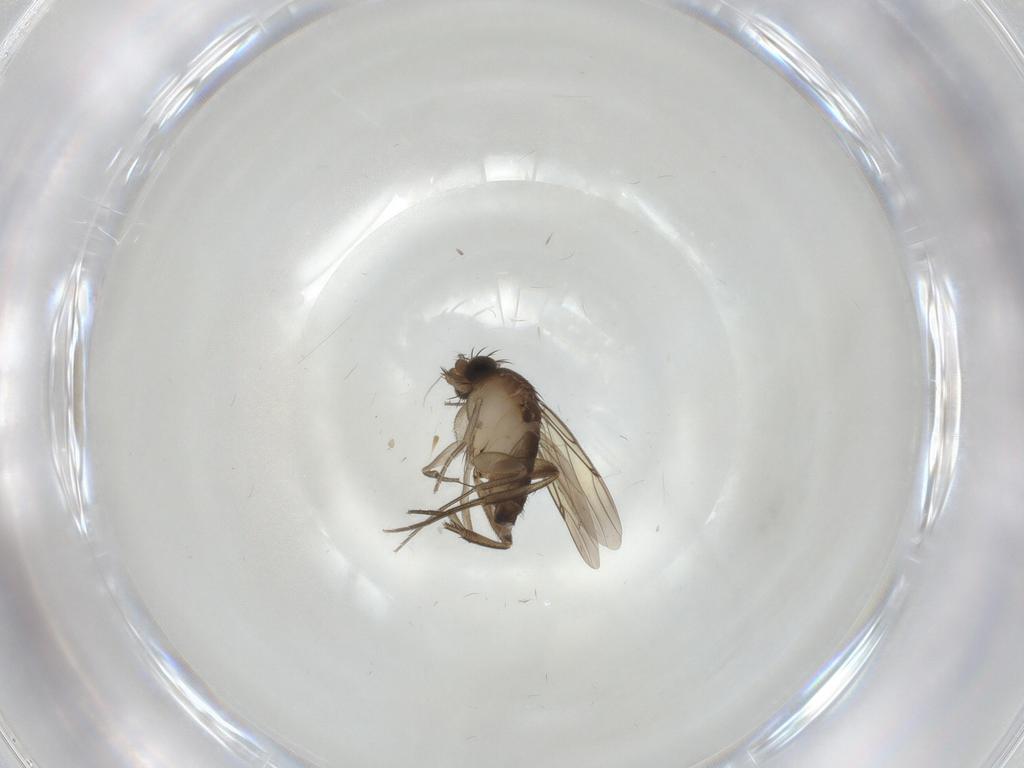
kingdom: Animalia
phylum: Arthropoda
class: Insecta
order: Diptera
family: Phoridae
